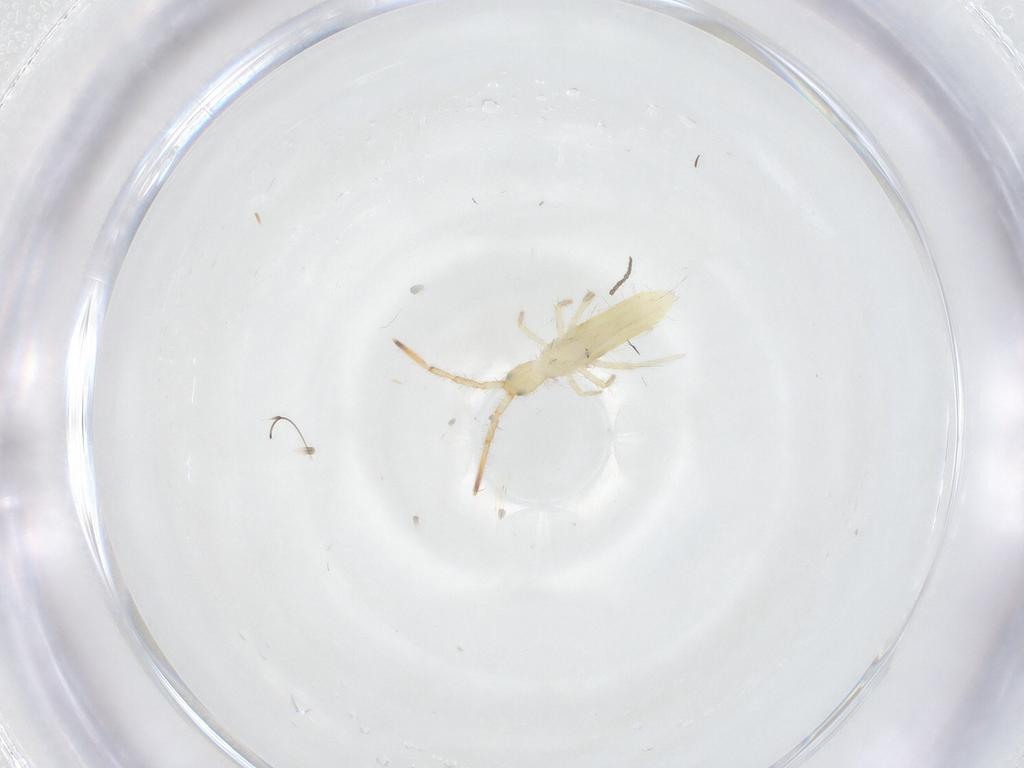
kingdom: Animalia
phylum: Arthropoda
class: Collembola
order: Entomobryomorpha
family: Entomobryidae
